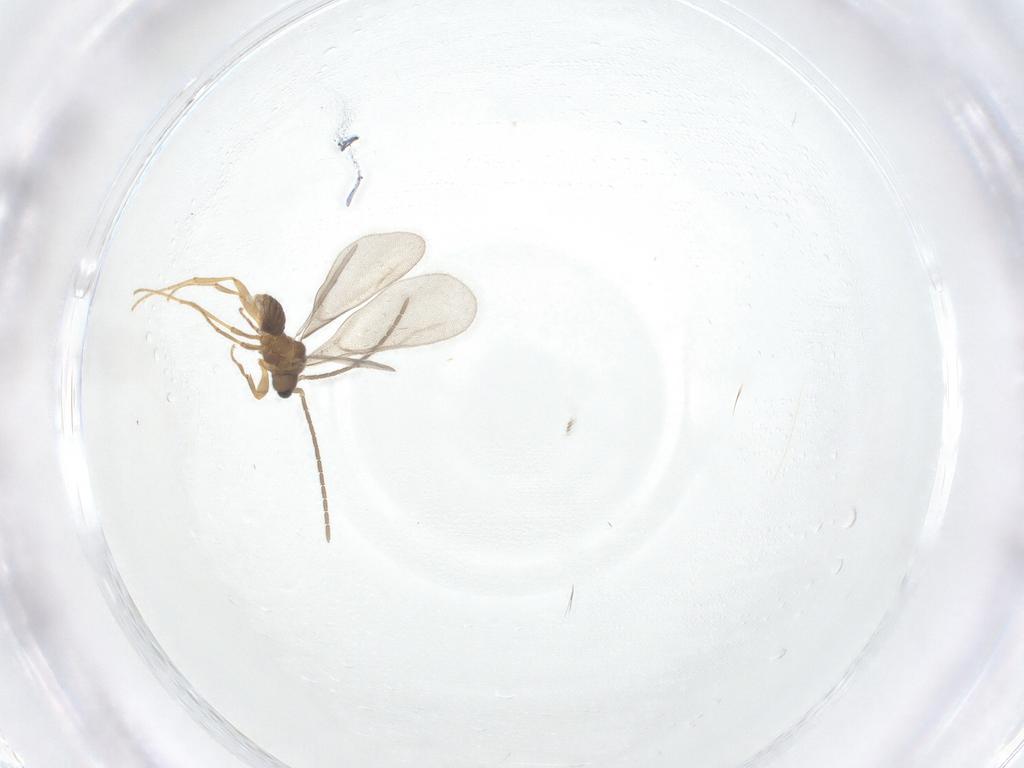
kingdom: Animalia
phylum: Arthropoda
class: Insecta
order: Hymenoptera
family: Formicidae
